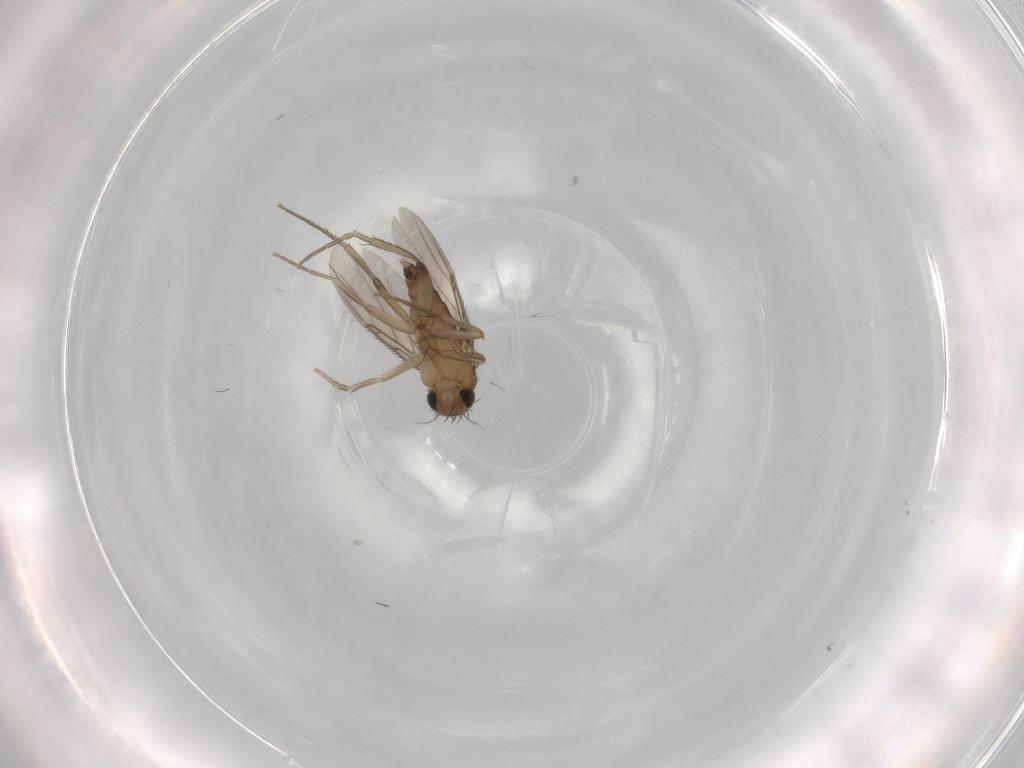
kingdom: Animalia
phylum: Arthropoda
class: Insecta
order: Diptera
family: Phoridae
